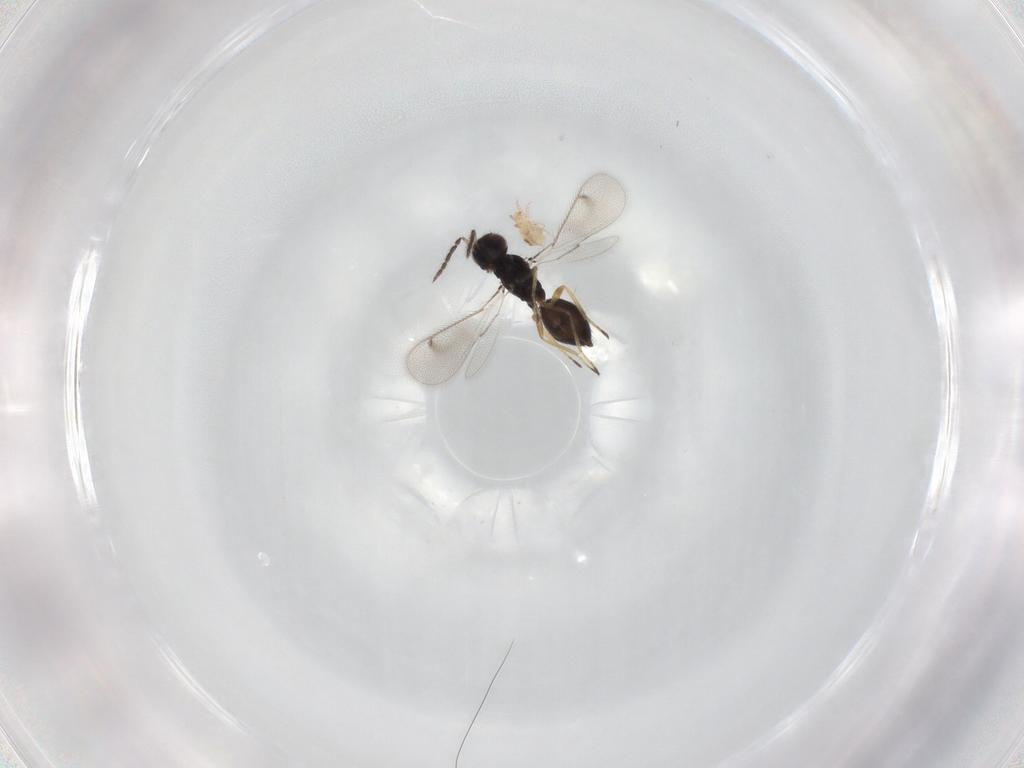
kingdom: Animalia
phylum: Arthropoda
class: Insecta
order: Hymenoptera
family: Eulophidae
